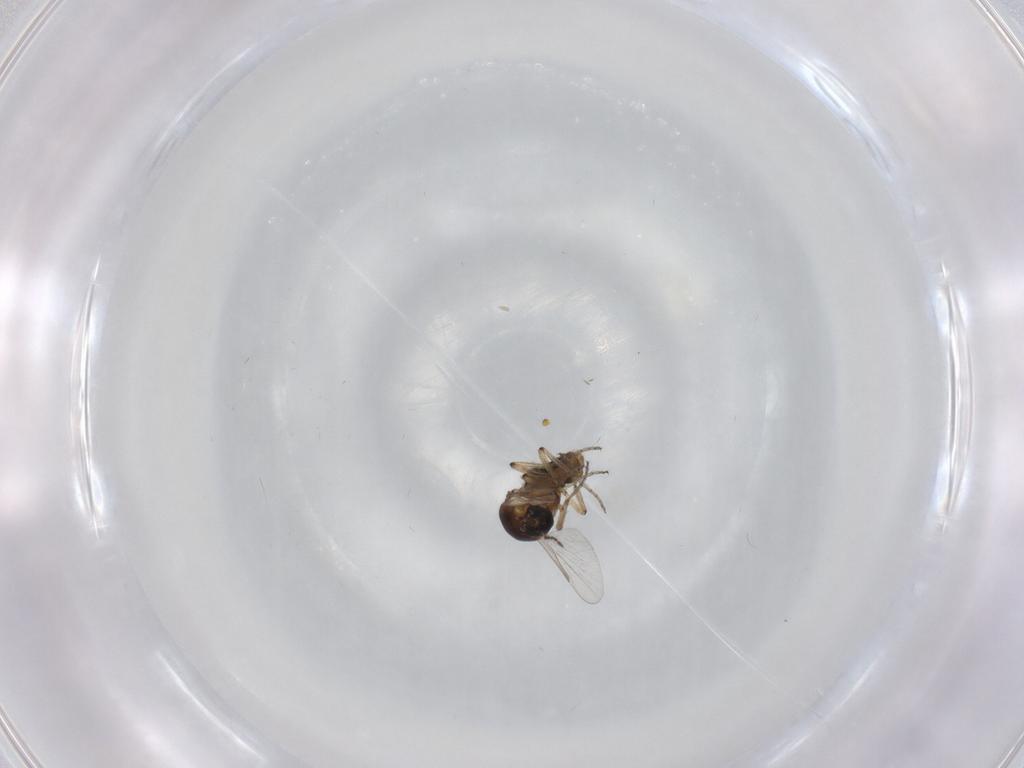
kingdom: Animalia
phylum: Arthropoda
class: Insecta
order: Diptera
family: Ceratopogonidae
